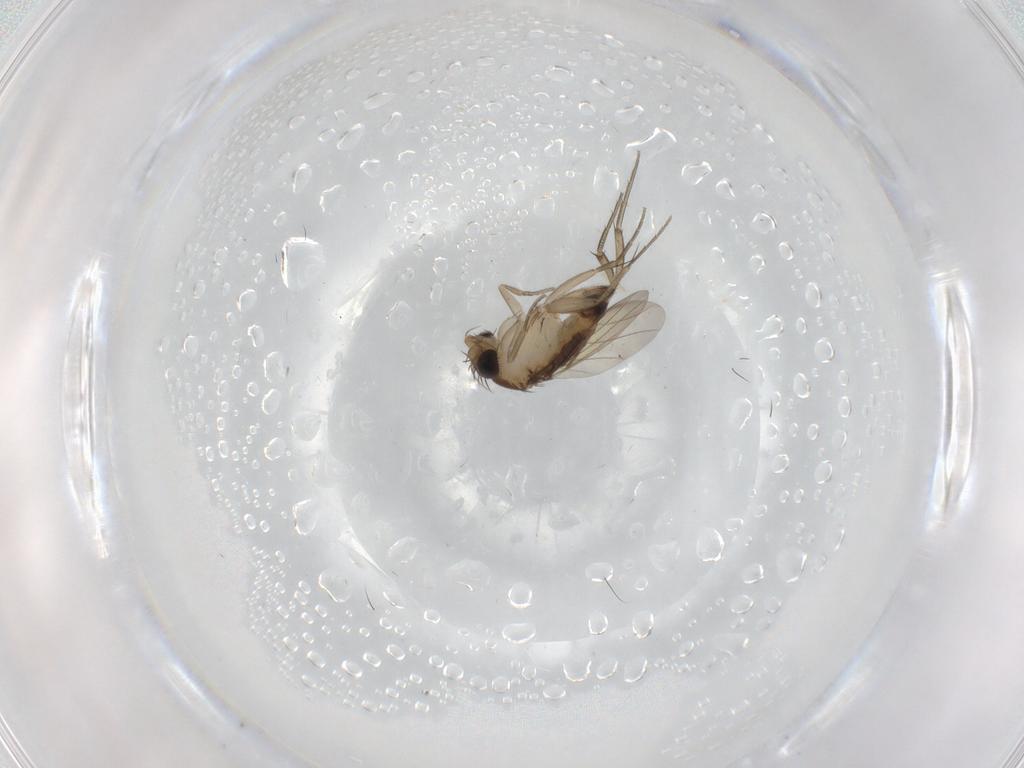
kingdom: Animalia
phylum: Arthropoda
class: Insecta
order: Diptera
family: Phoridae
